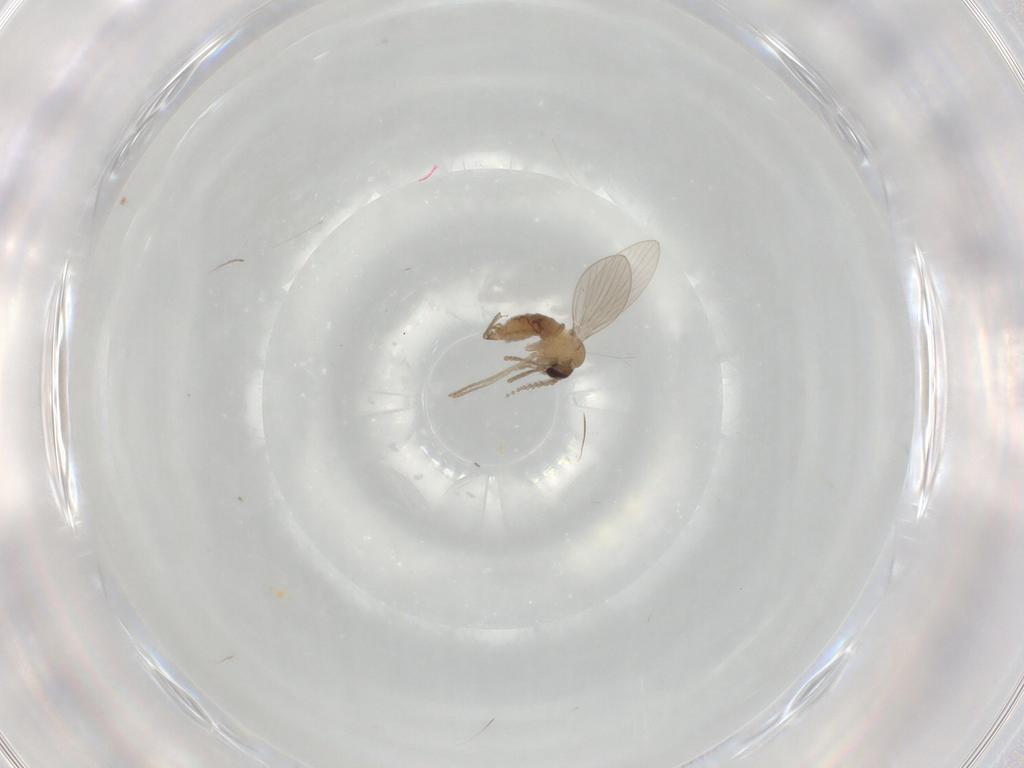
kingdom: Animalia
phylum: Arthropoda
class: Insecta
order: Diptera
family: Psychodidae
